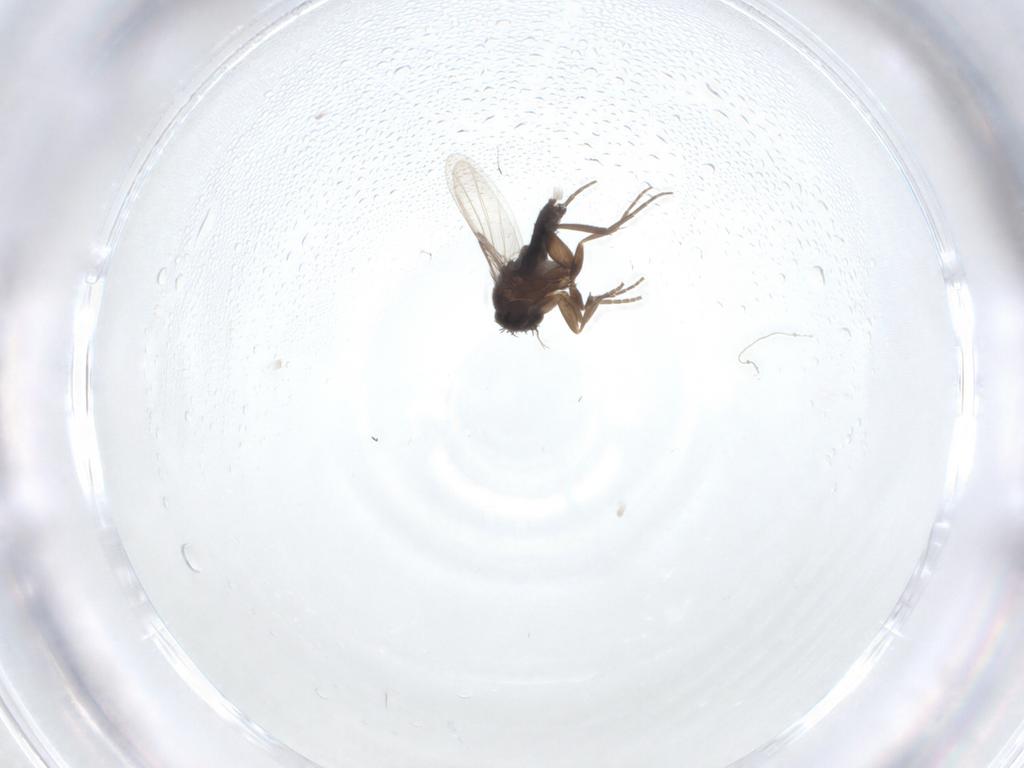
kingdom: Animalia
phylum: Arthropoda
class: Insecta
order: Diptera
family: Phoridae
